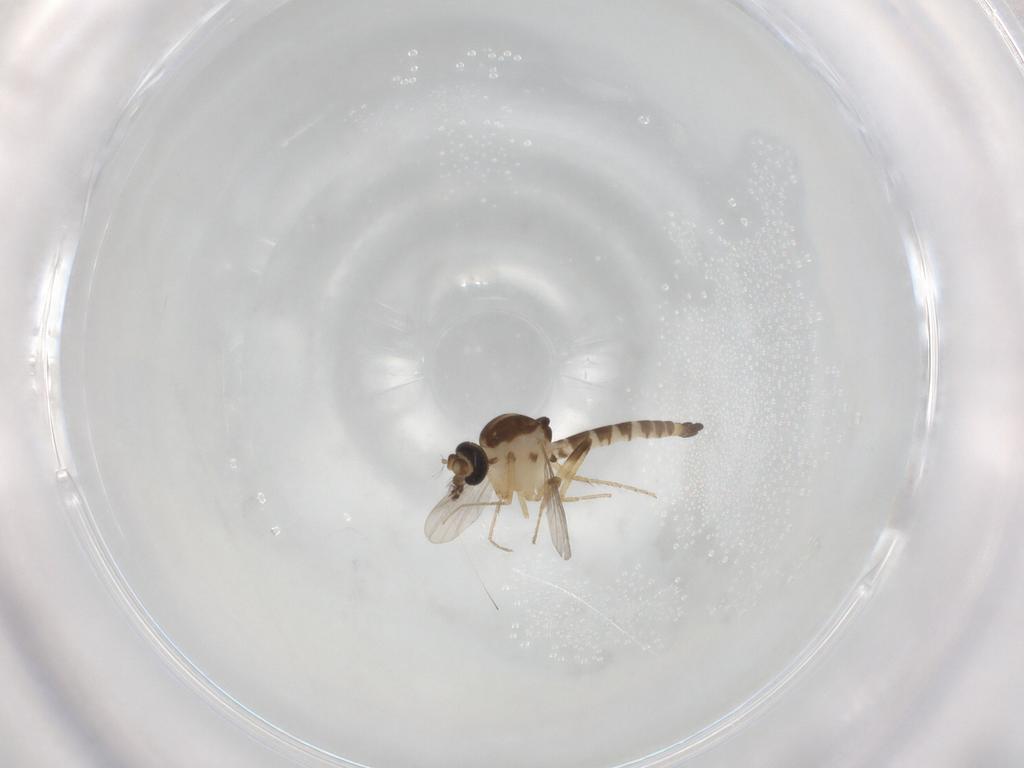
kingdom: Animalia
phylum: Arthropoda
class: Insecta
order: Diptera
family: Ceratopogonidae
